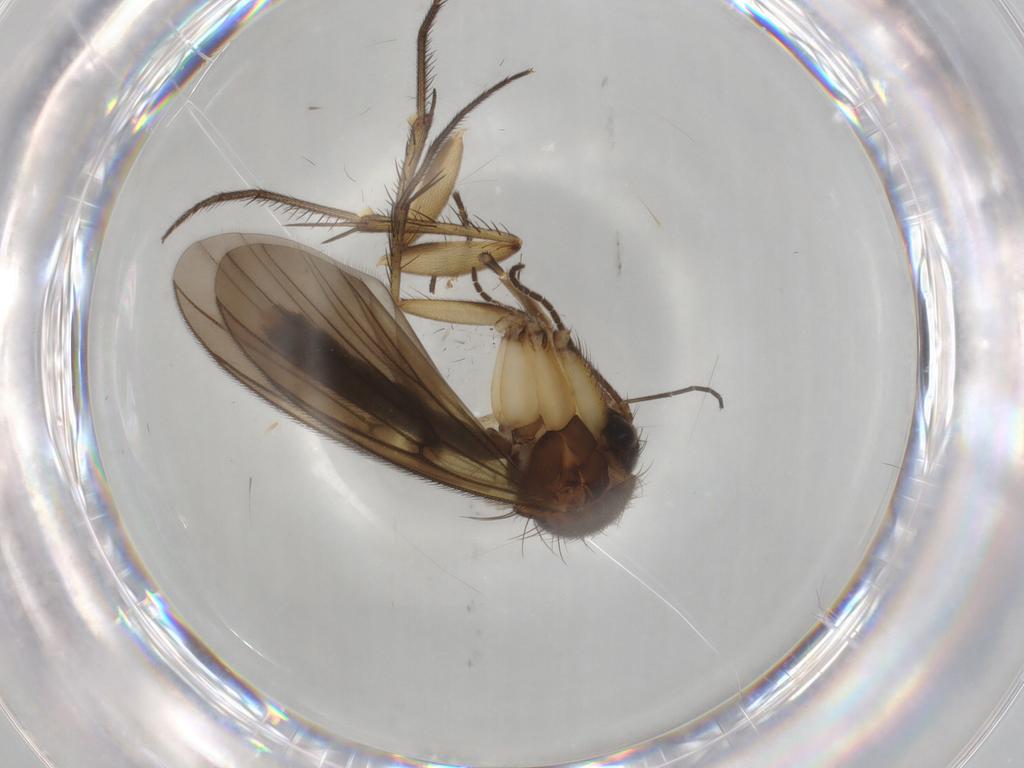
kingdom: Animalia
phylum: Arthropoda
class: Insecta
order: Diptera
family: Sciaridae
